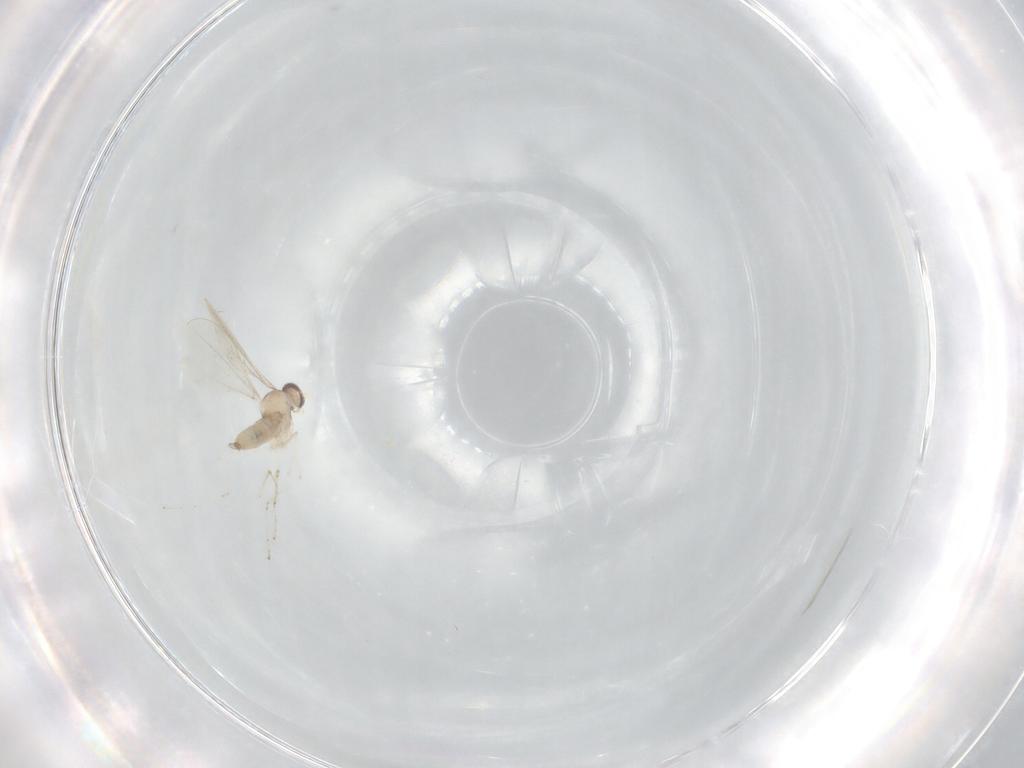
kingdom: Animalia
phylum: Arthropoda
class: Insecta
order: Diptera
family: Cecidomyiidae
